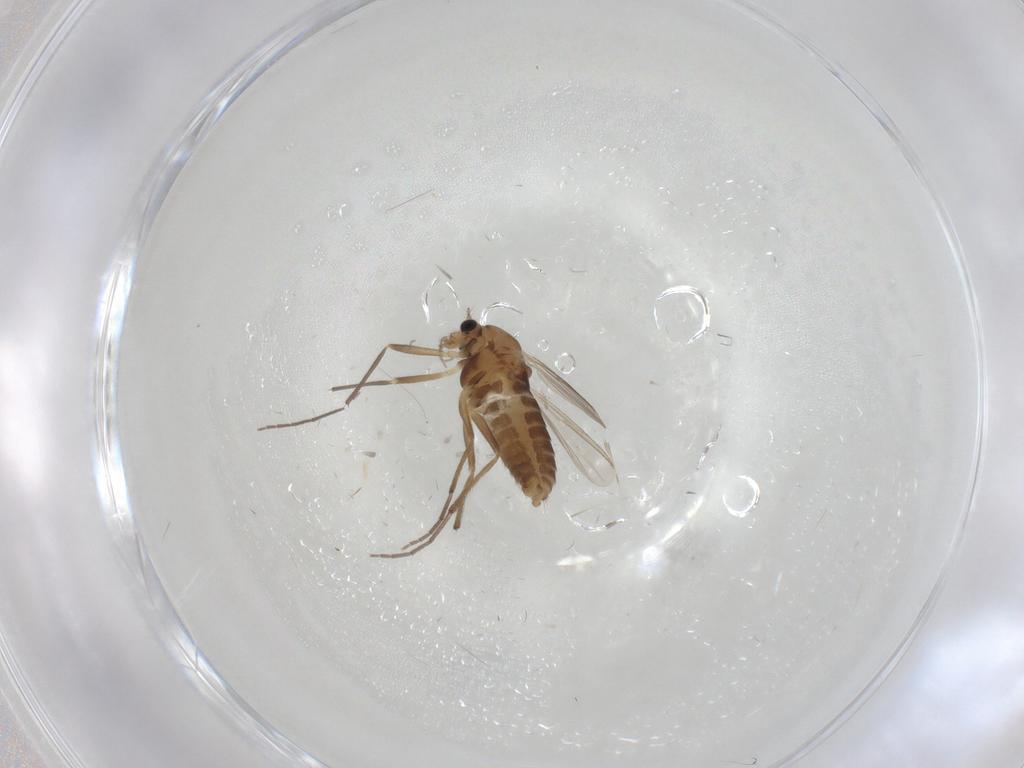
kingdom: Animalia
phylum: Arthropoda
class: Insecta
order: Diptera
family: Chironomidae
